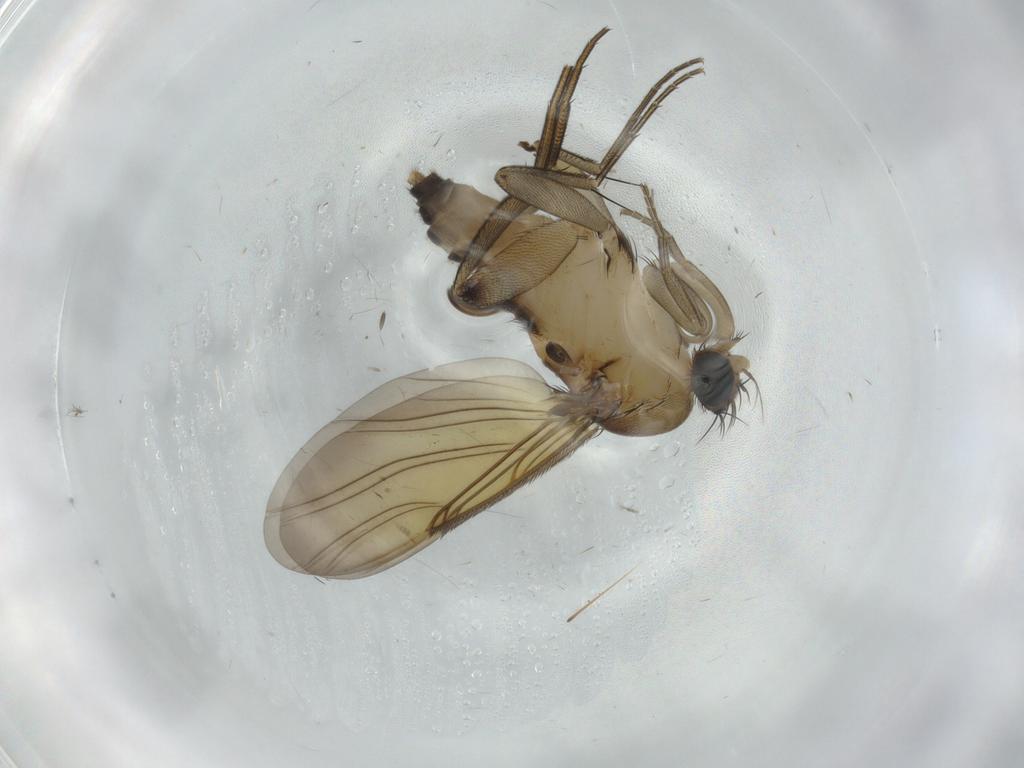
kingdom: Animalia
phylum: Arthropoda
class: Insecta
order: Diptera
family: Phoridae
